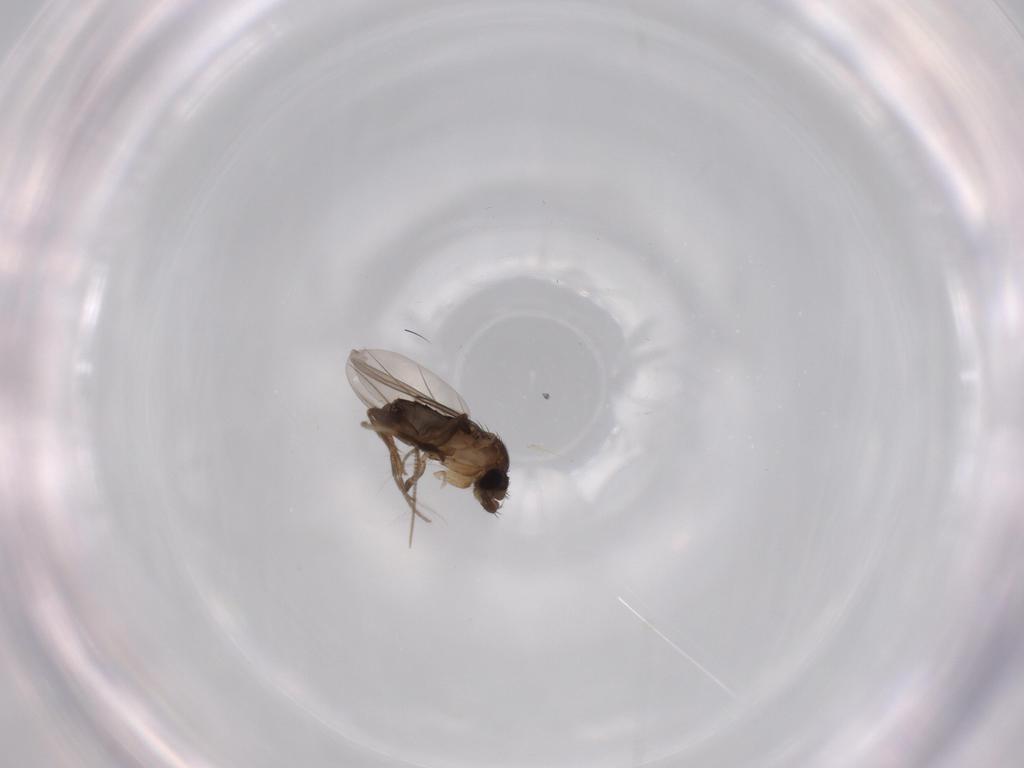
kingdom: Animalia
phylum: Arthropoda
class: Insecta
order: Diptera
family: Phoridae
